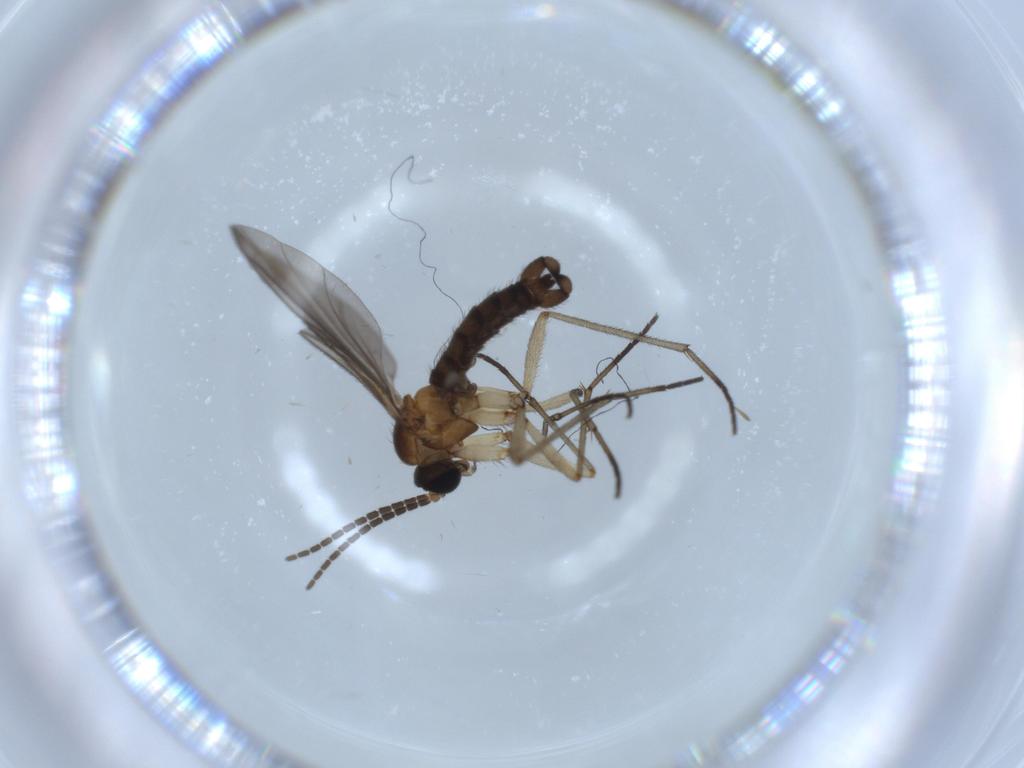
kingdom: Animalia
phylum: Arthropoda
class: Insecta
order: Diptera
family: Sciaridae
